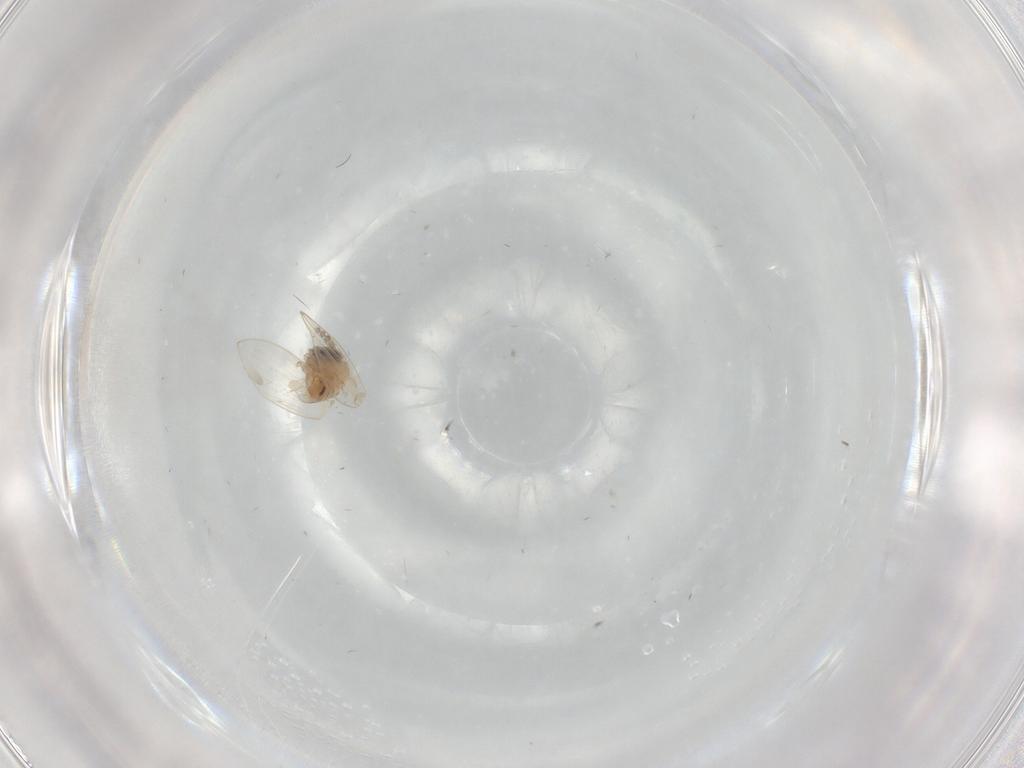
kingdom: Animalia
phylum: Arthropoda
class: Insecta
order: Diptera
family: Psychodidae
